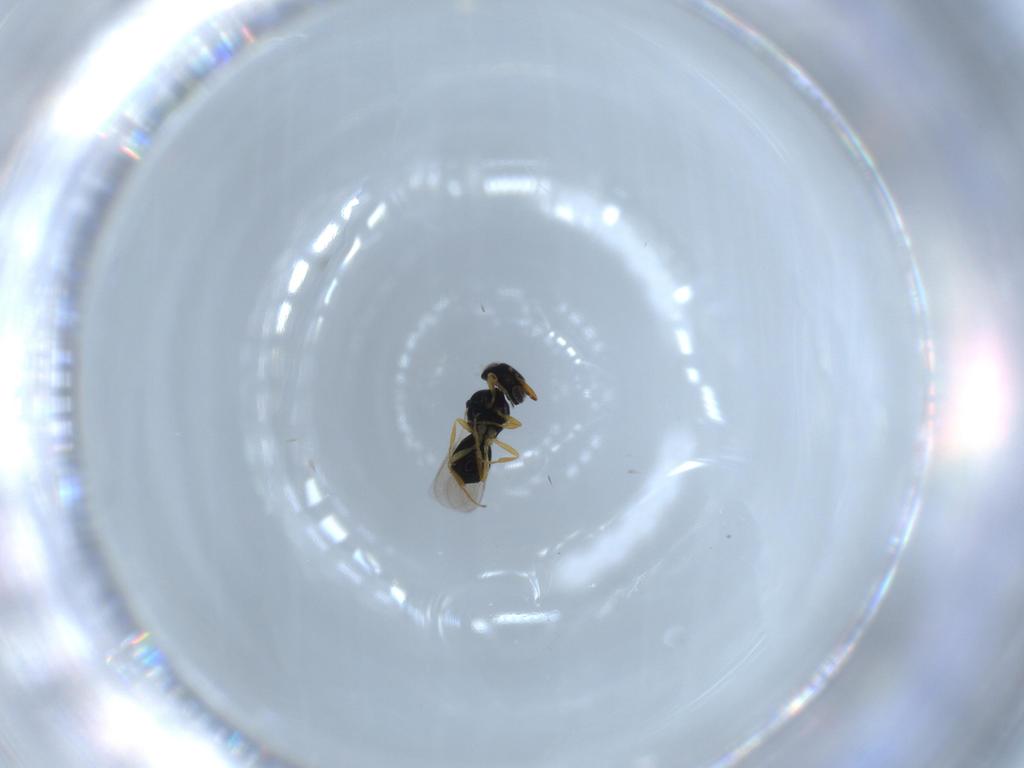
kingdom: Animalia
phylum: Arthropoda
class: Insecta
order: Hymenoptera
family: Scelionidae
